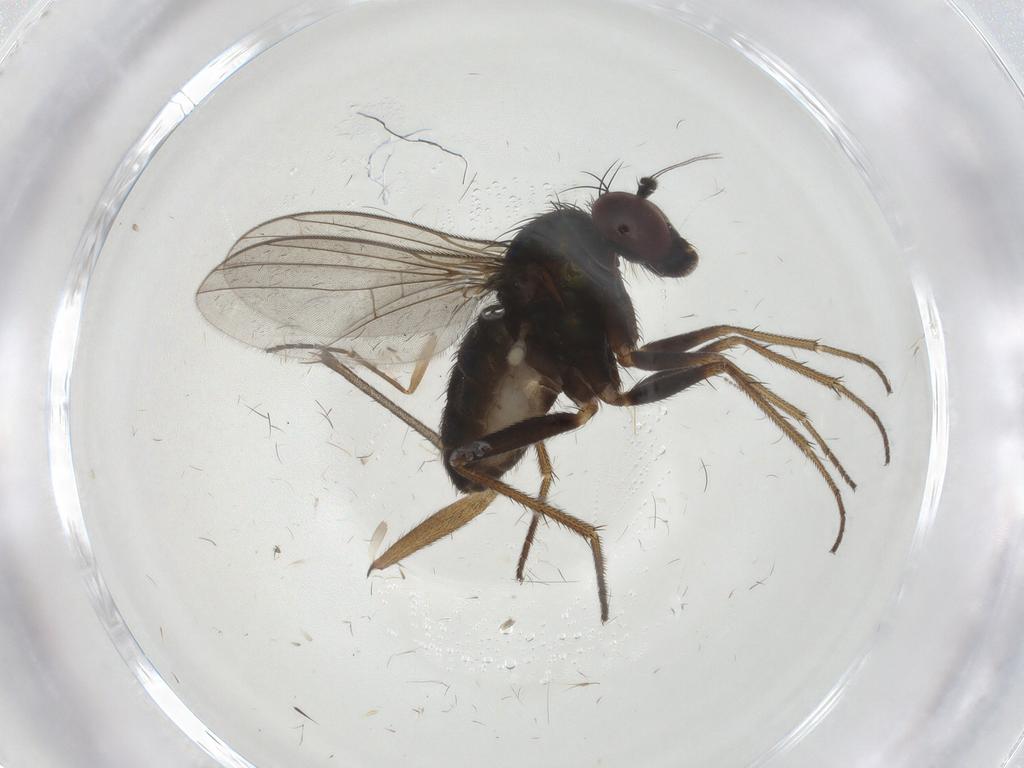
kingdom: Animalia
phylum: Arthropoda
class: Insecta
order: Diptera
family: Dolichopodidae
